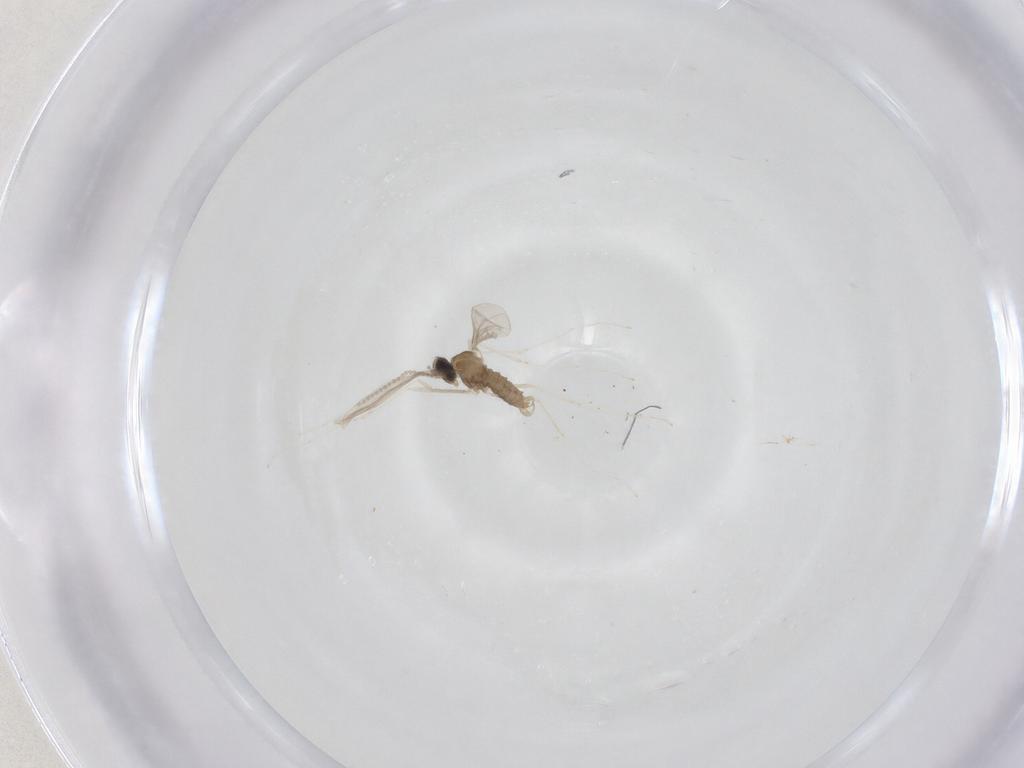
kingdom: Animalia
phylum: Arthropoda
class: Insecta
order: Diptera
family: Cecidomyiidae
